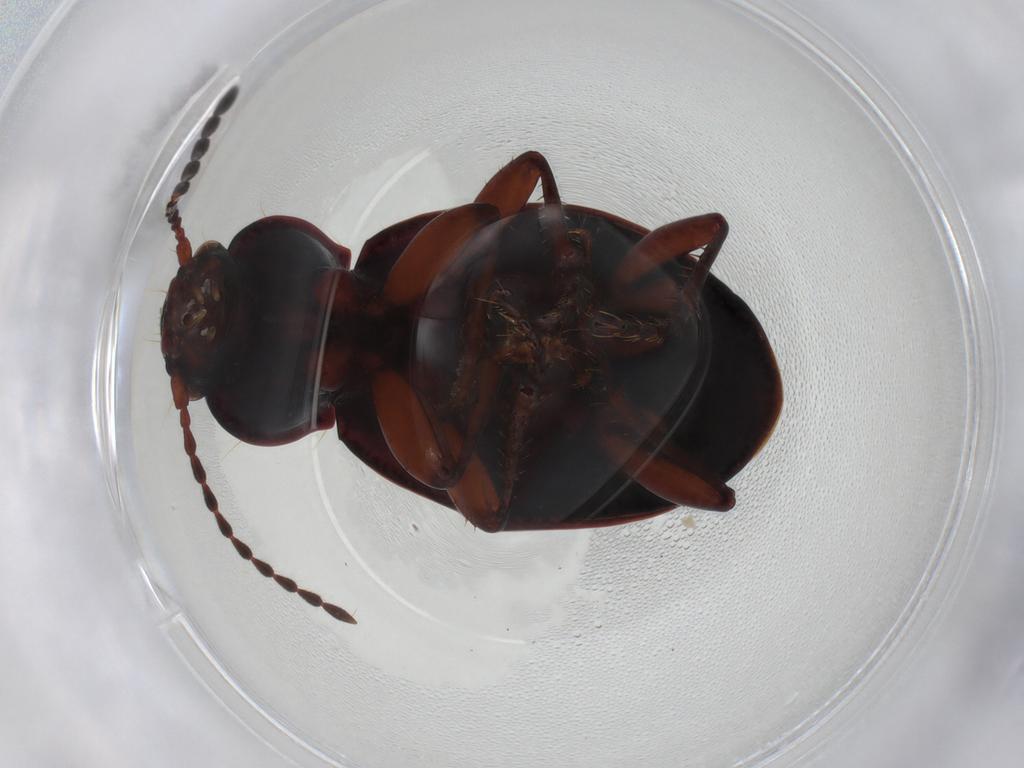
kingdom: Animalia
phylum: Arthropoda
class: Insecta
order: Coleoptera
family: Carabidae
